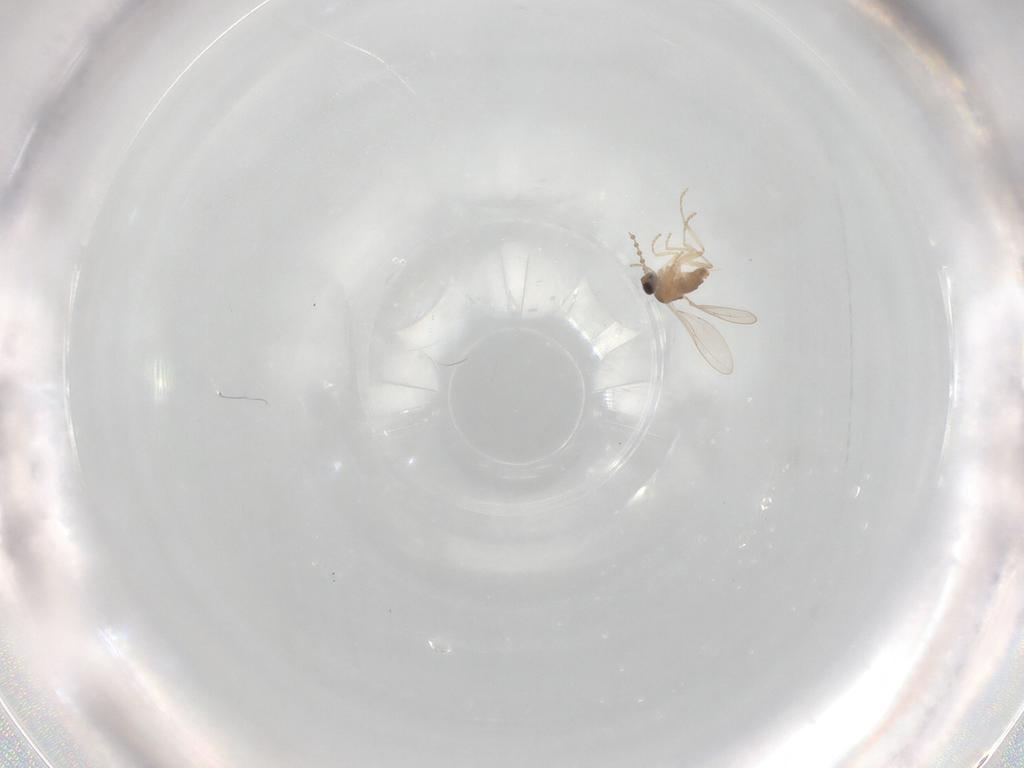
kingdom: Animalia
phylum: Arthropoda
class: Insecta
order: Diptera
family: Cecidomyiidae
